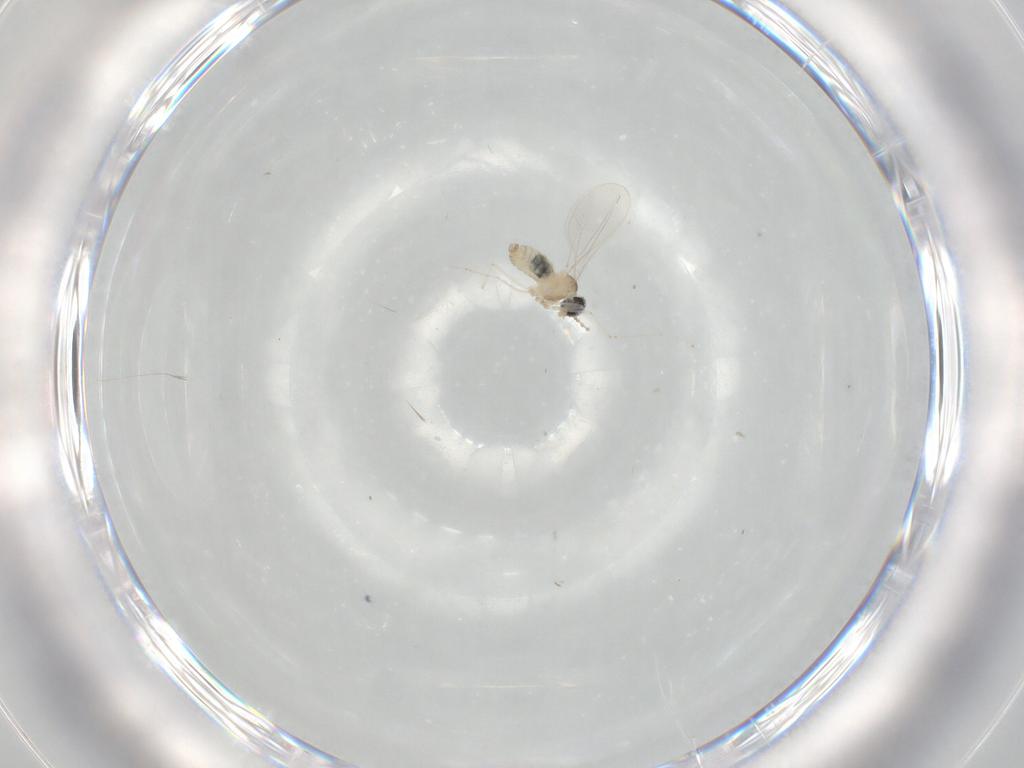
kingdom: Animalia
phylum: Arthropoda
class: Insecta
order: Diptera
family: Cecidomyiidae
